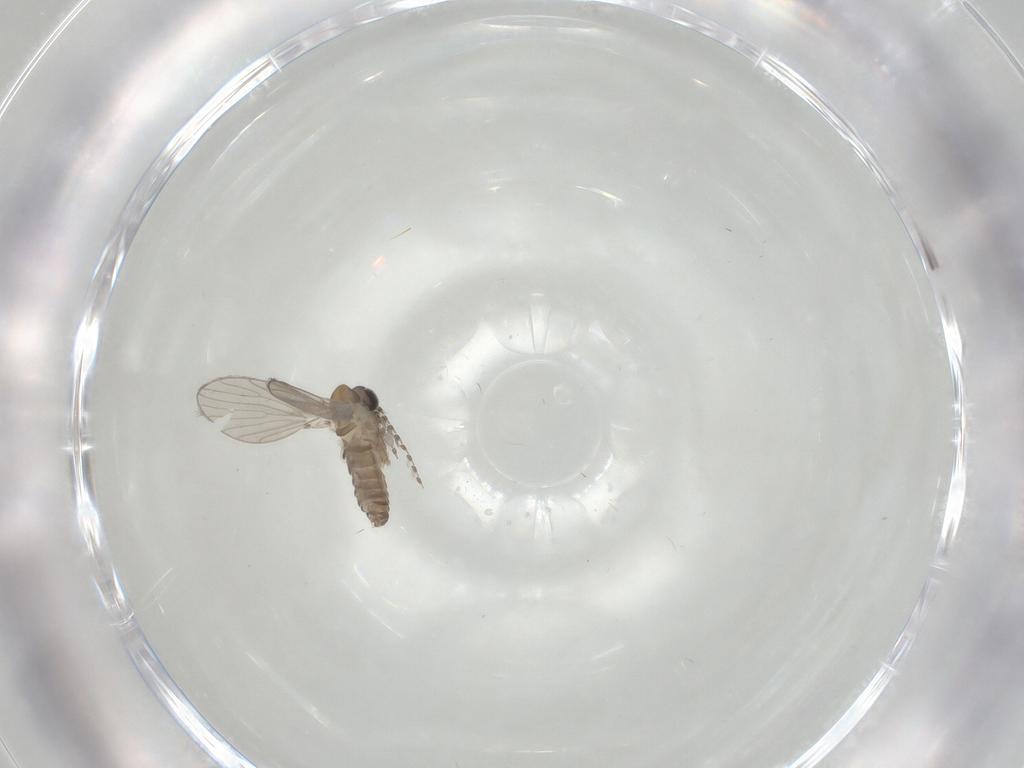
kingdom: Animalia
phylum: Arthropoda
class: Insecta
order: Diptera
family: Psychodidae
